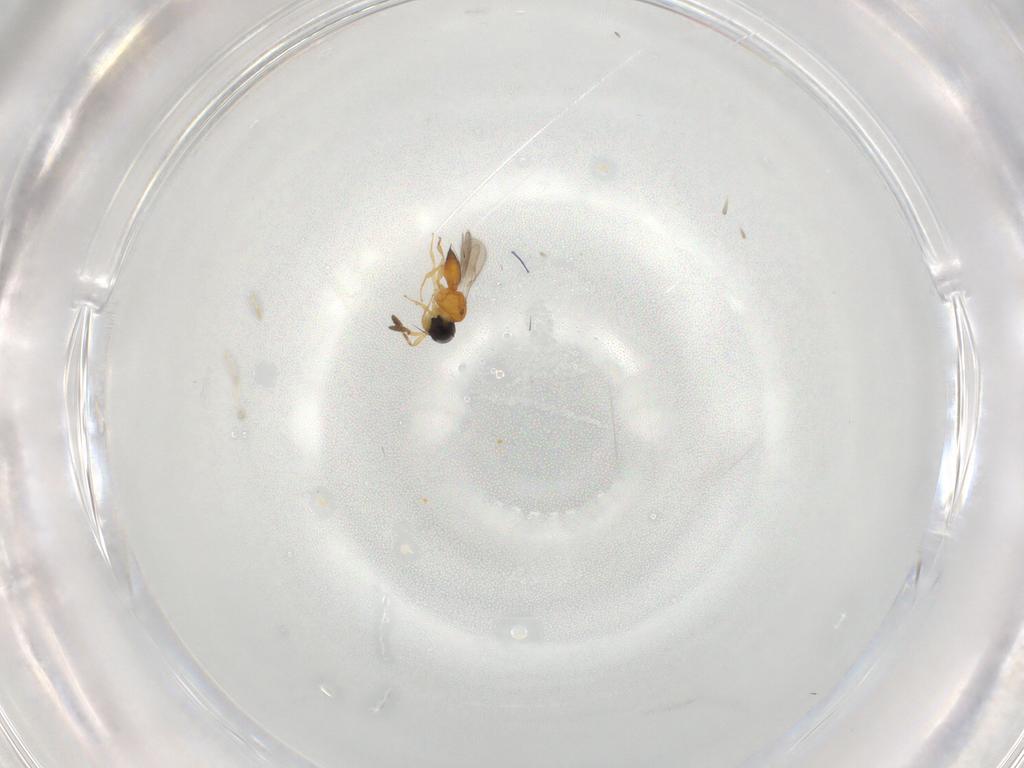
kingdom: Animalia
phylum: Arthropoda
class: Insecta
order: Hymenoptera
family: Scelionidae
